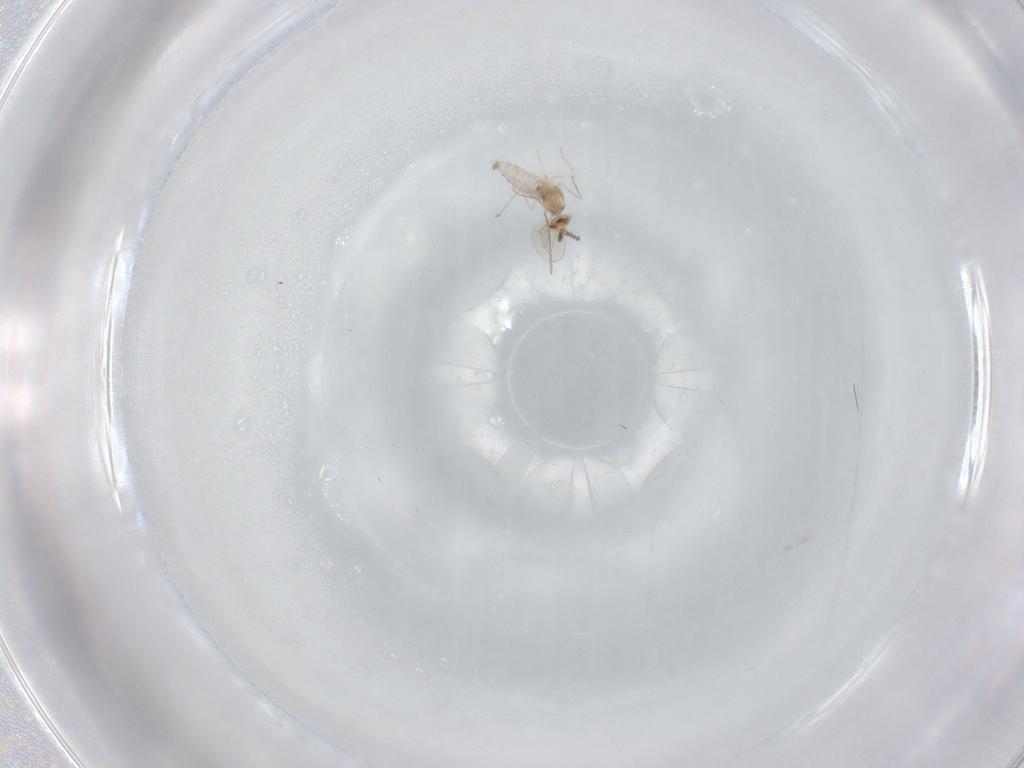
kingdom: Animalia
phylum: Arthropoda
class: Insecta
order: Diptera
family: Cecidomyiidae
